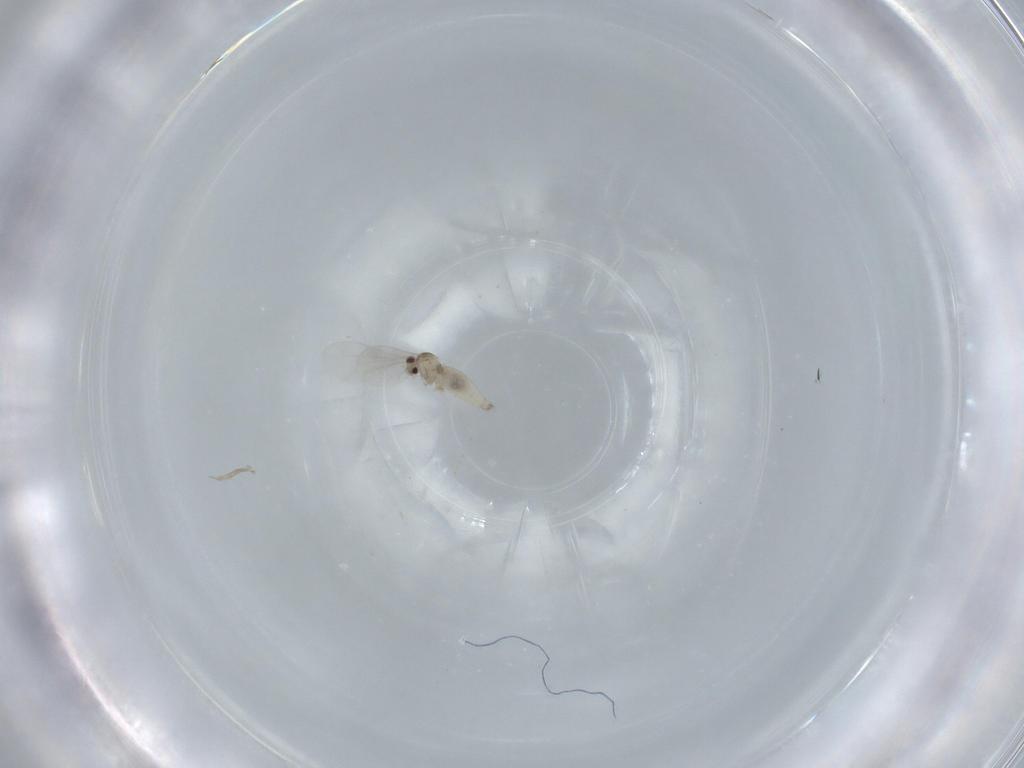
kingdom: Animalia
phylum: Arthropoda
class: Insecta
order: Diptera
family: Cecidomyiidae
